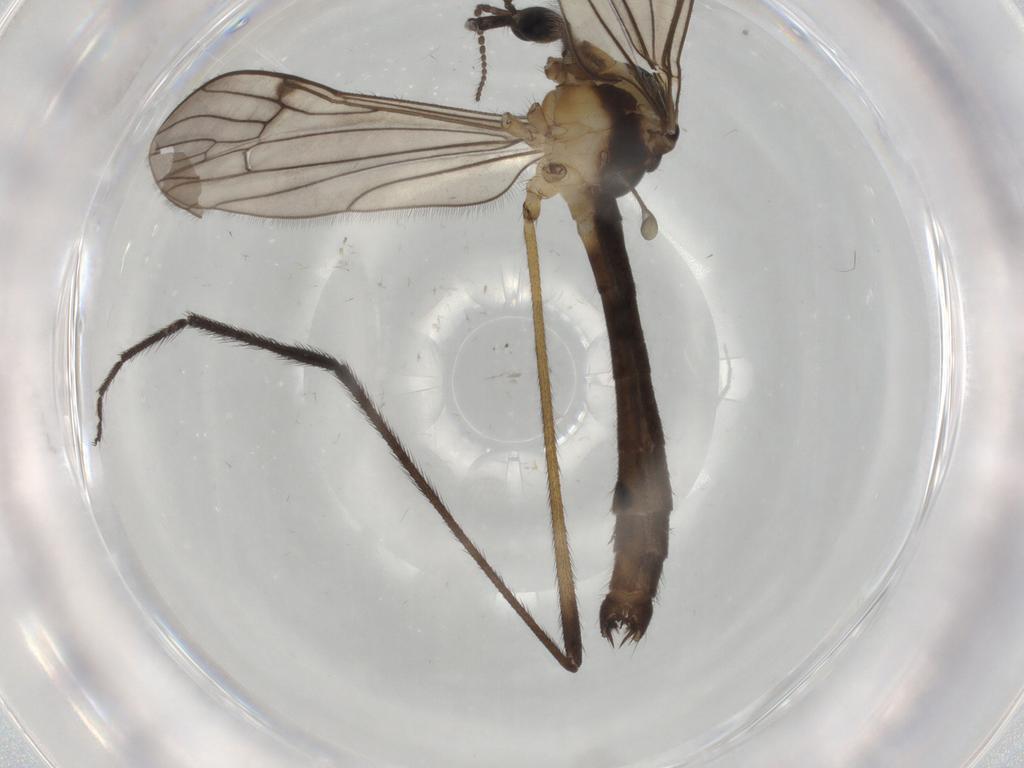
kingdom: Animalia
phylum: Arthropoda
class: Insecta
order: Diptera
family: Limoniidae
